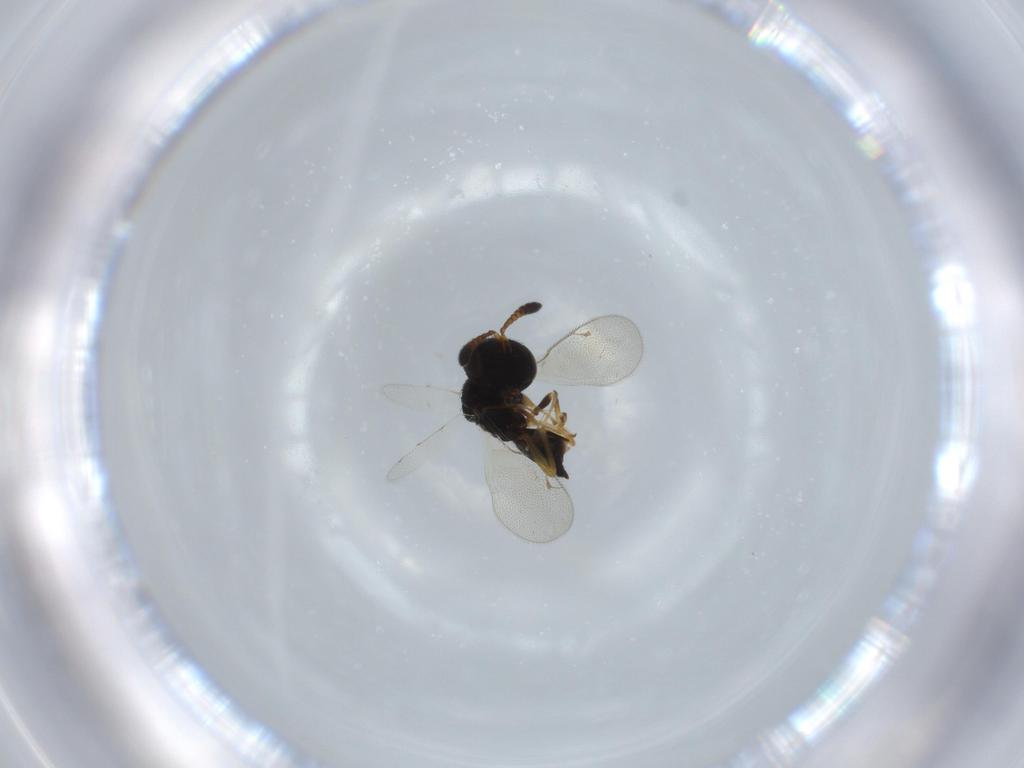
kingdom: Animalia
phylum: Arthropoda
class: Insecta
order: Hymenoptera
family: Pteromalidae
